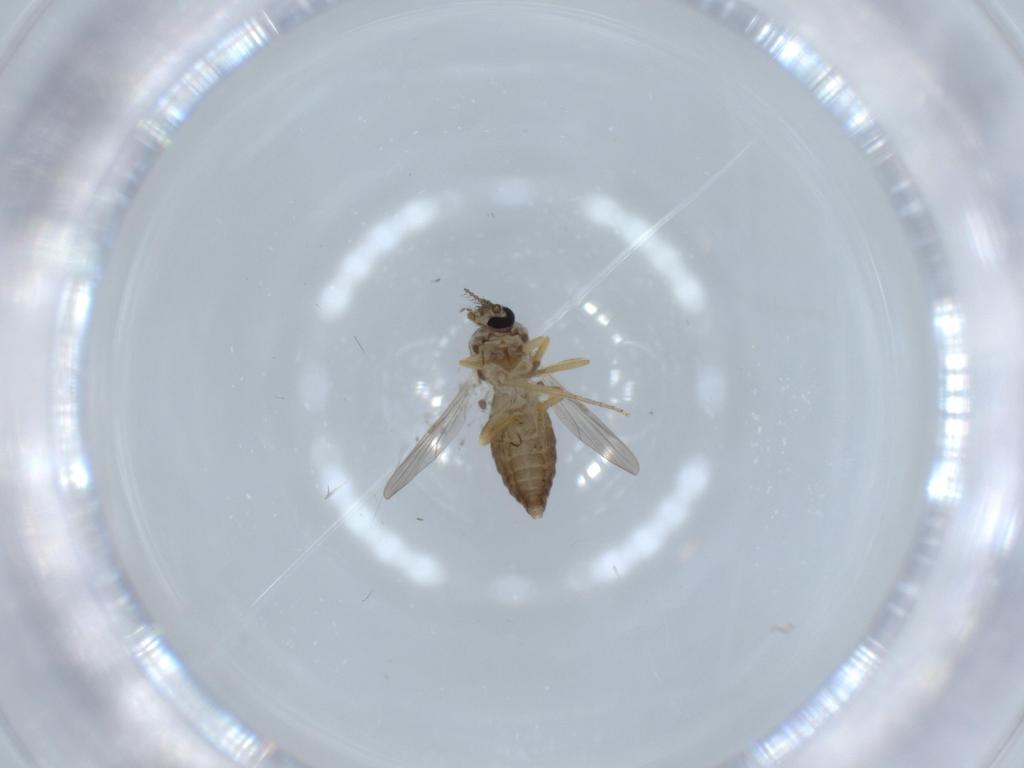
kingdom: Animalia
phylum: Arthropoda
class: Insecta
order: Diptera
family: Ceratopogonidae
